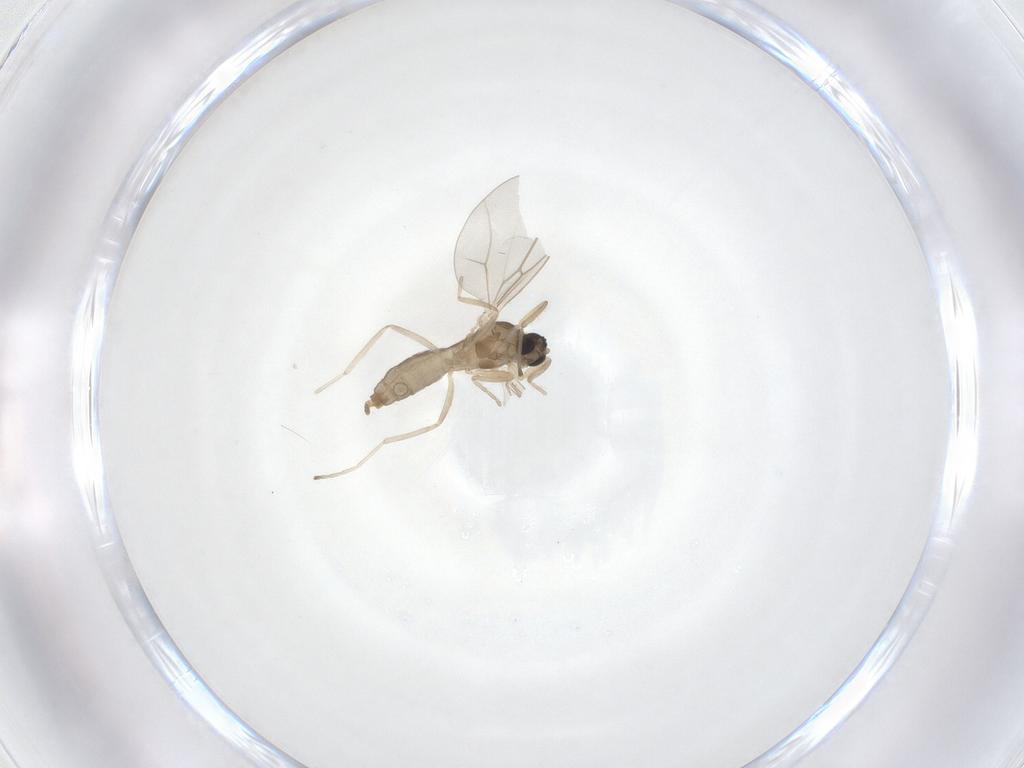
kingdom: Animalia
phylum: Arthropoda
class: Insecta
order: Diptera
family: Cecidomyiidae
